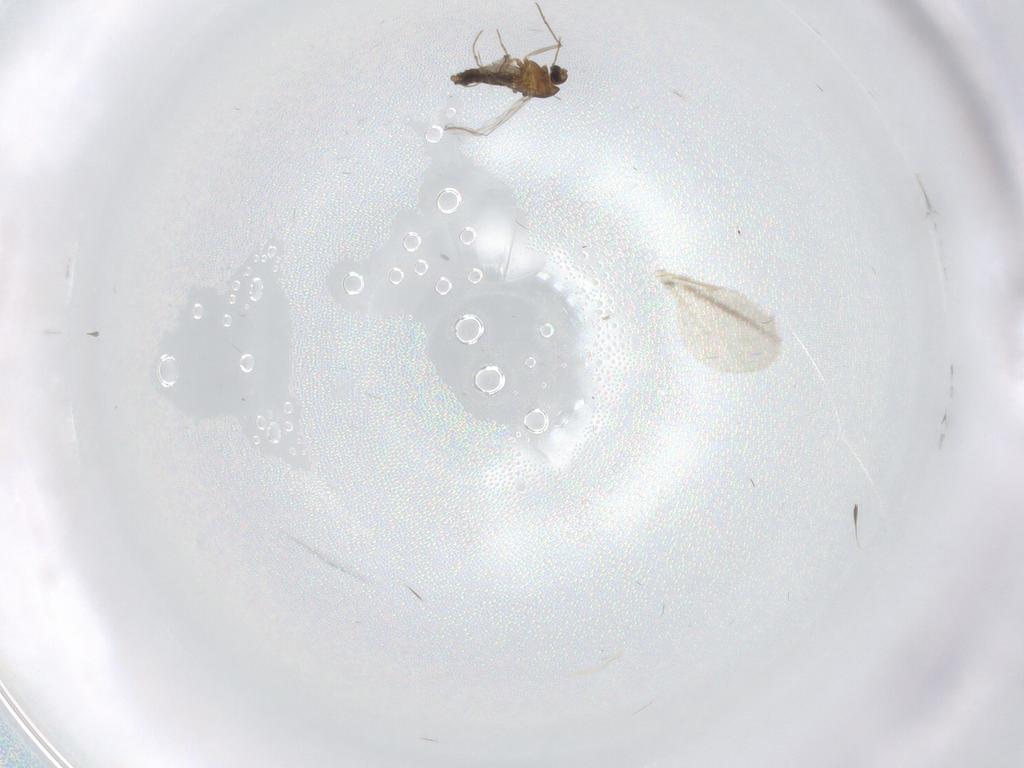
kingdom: Animalia
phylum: Arthropoda
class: Insecta
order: Diptera
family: Chironomidae
